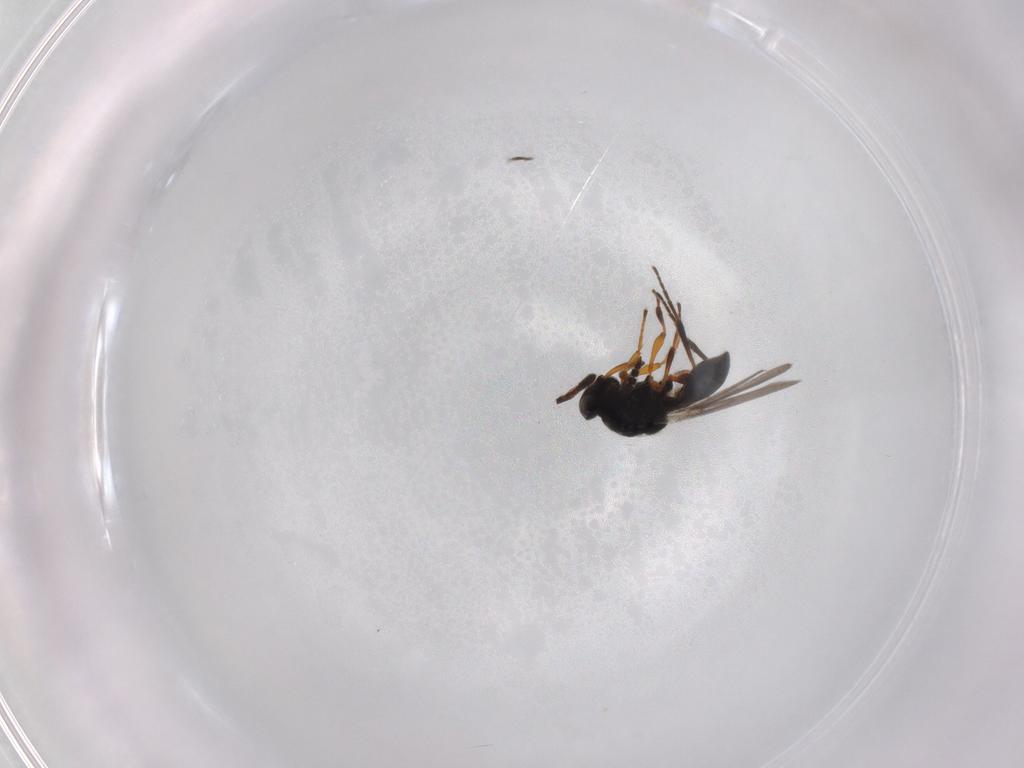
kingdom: Animalia
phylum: Arthropoda
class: Insecta
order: Hymenoptera
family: Platygastridae
